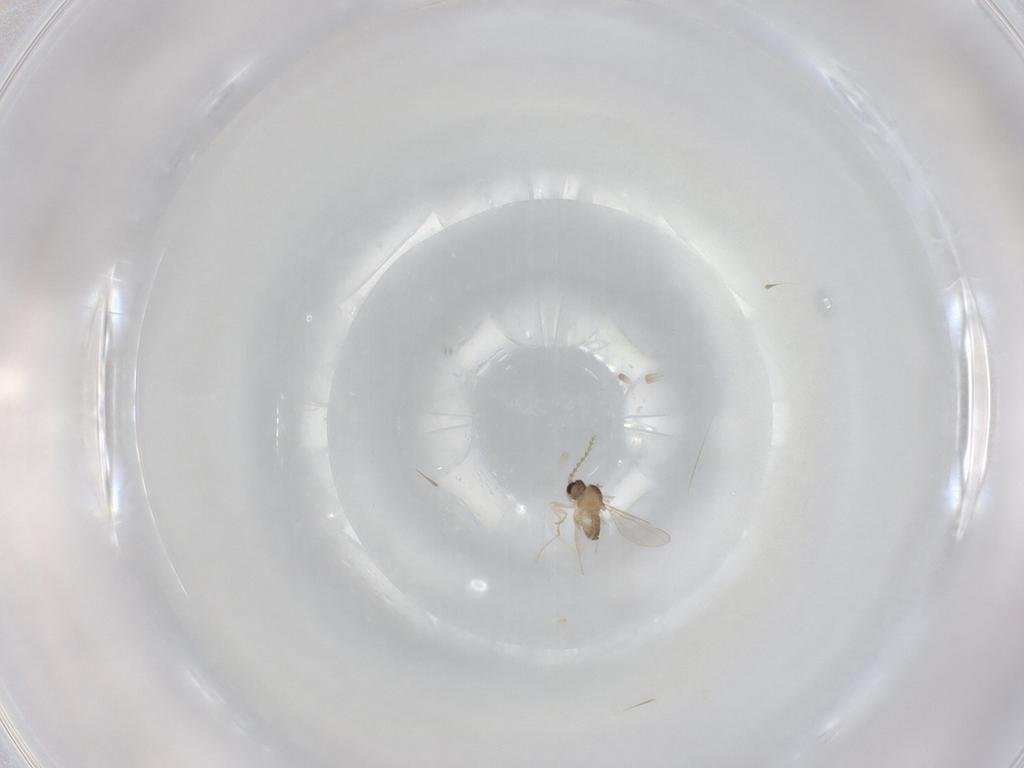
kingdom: Animalia
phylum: Arthropoda
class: Insecta
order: Diptera
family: Cecidomyiidae
